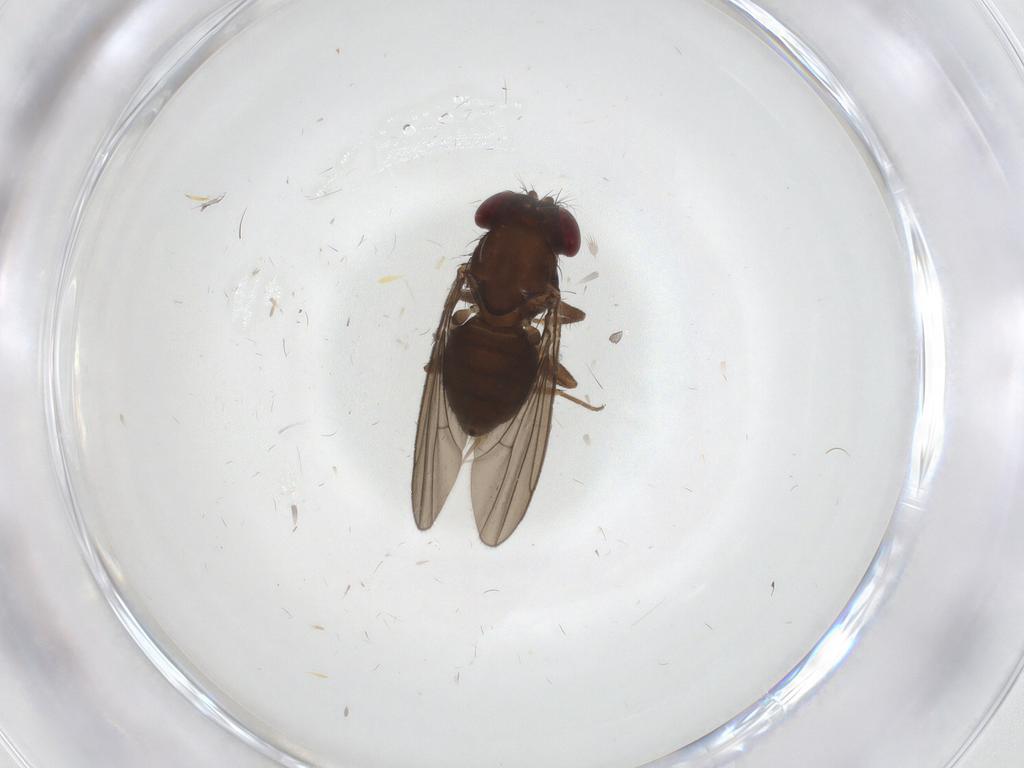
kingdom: Animalia
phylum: Arthropoda
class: Insecta
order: Diptera
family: Drosophilidae
